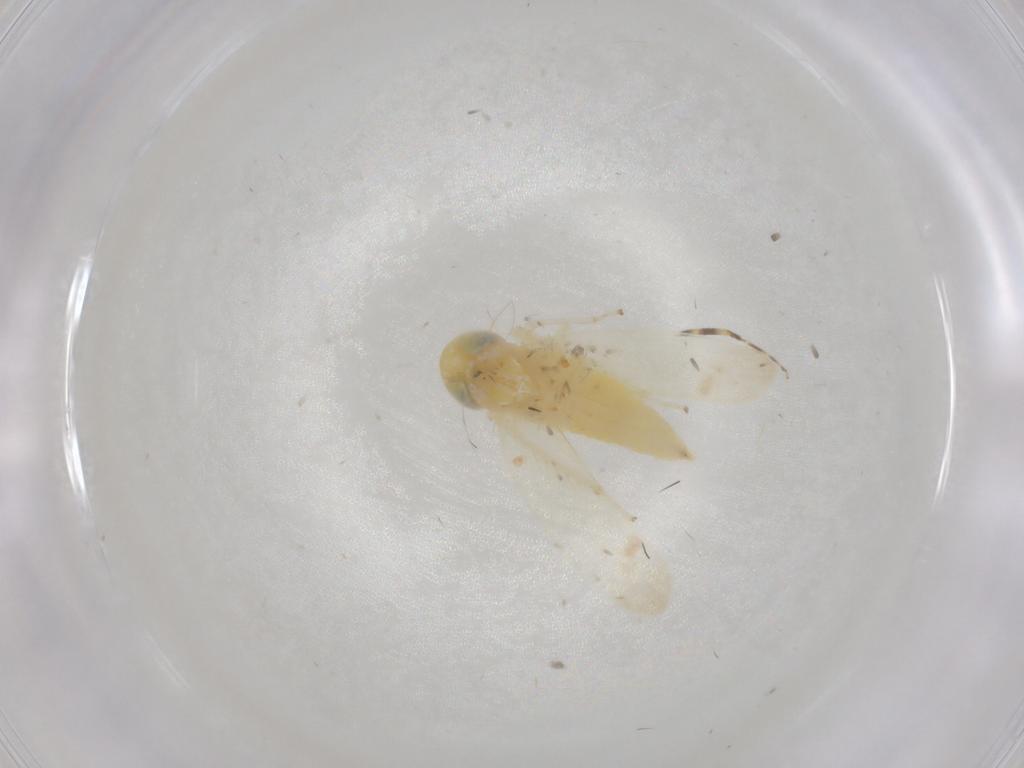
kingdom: Animalia
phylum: Arthropoda
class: Insecta
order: Hemiptera
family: Cicadellidae
